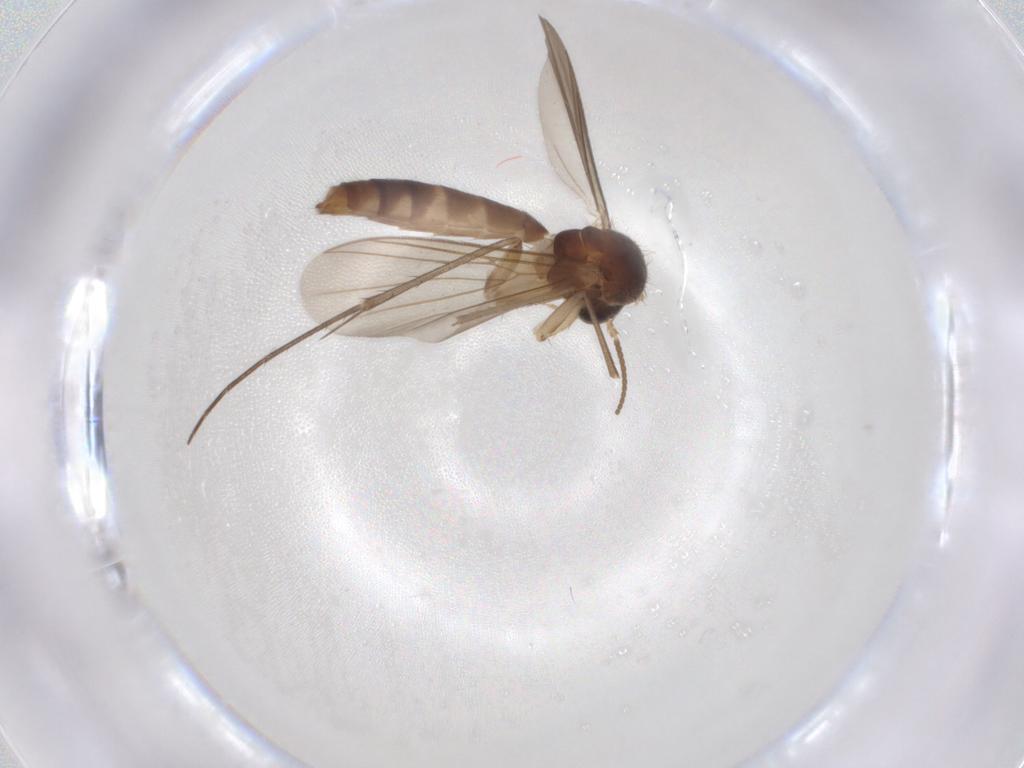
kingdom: Animalia
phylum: Arthropoda
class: Insecta
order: Diptera
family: Mycetophilidae
